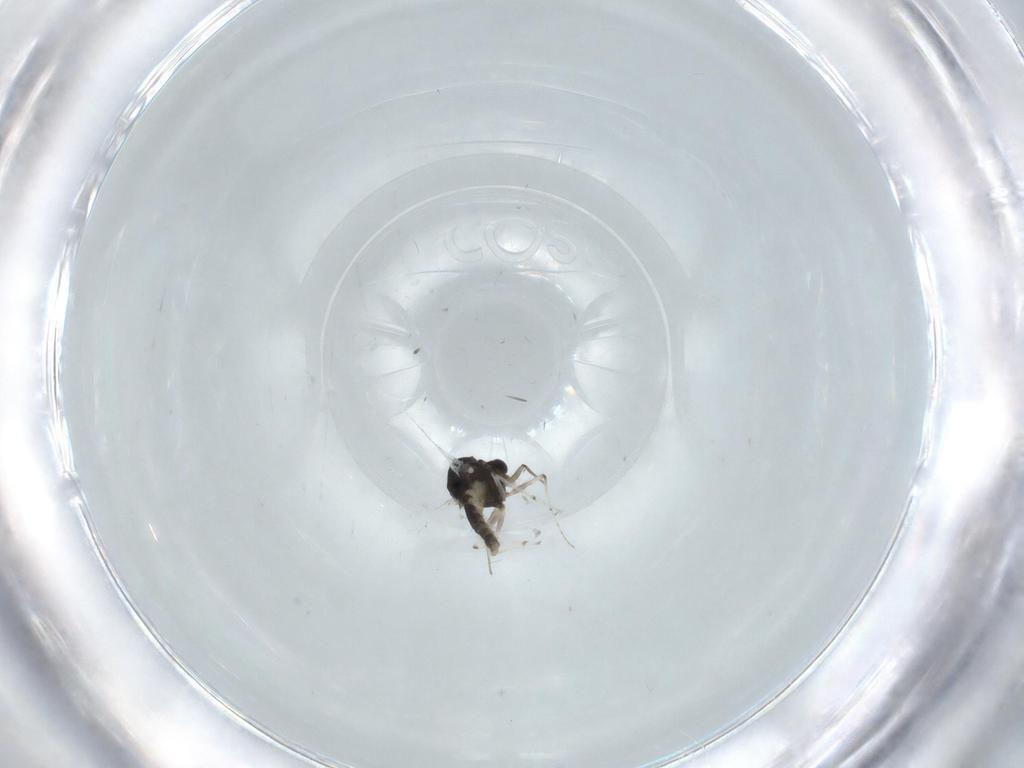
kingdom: Animalia
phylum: Arthropoda
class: Insecta
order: Diptera
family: Chironomidae
